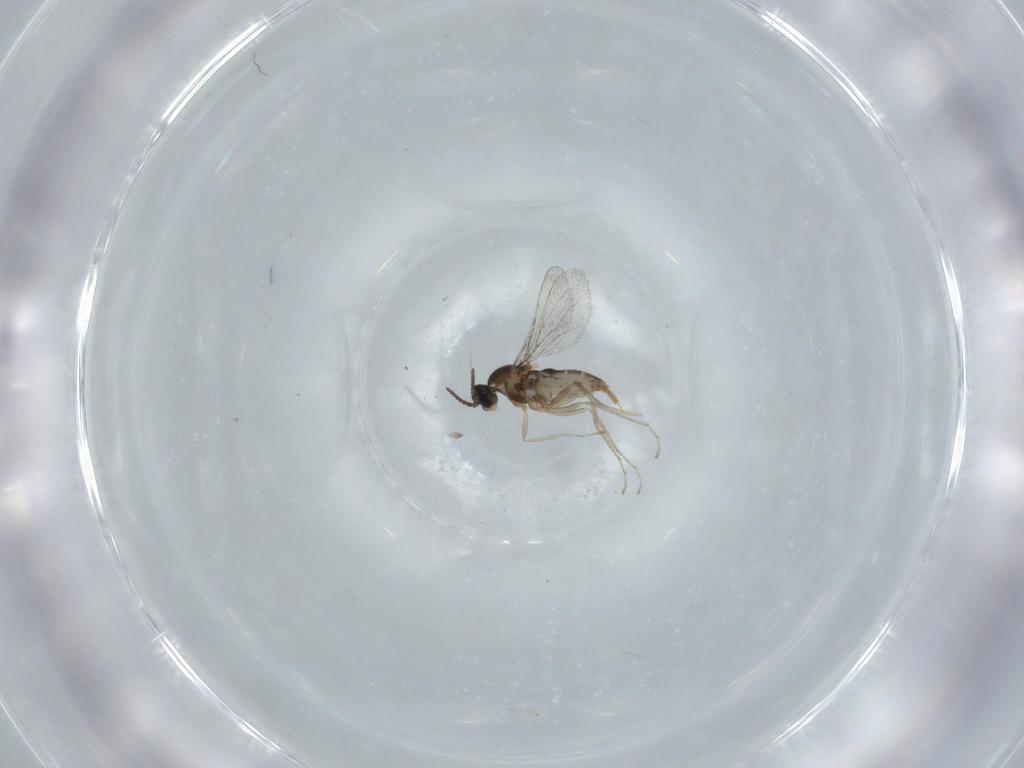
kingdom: Animalia
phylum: Arthropoda
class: Insecta
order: Diptera
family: Cecidomyiidae
